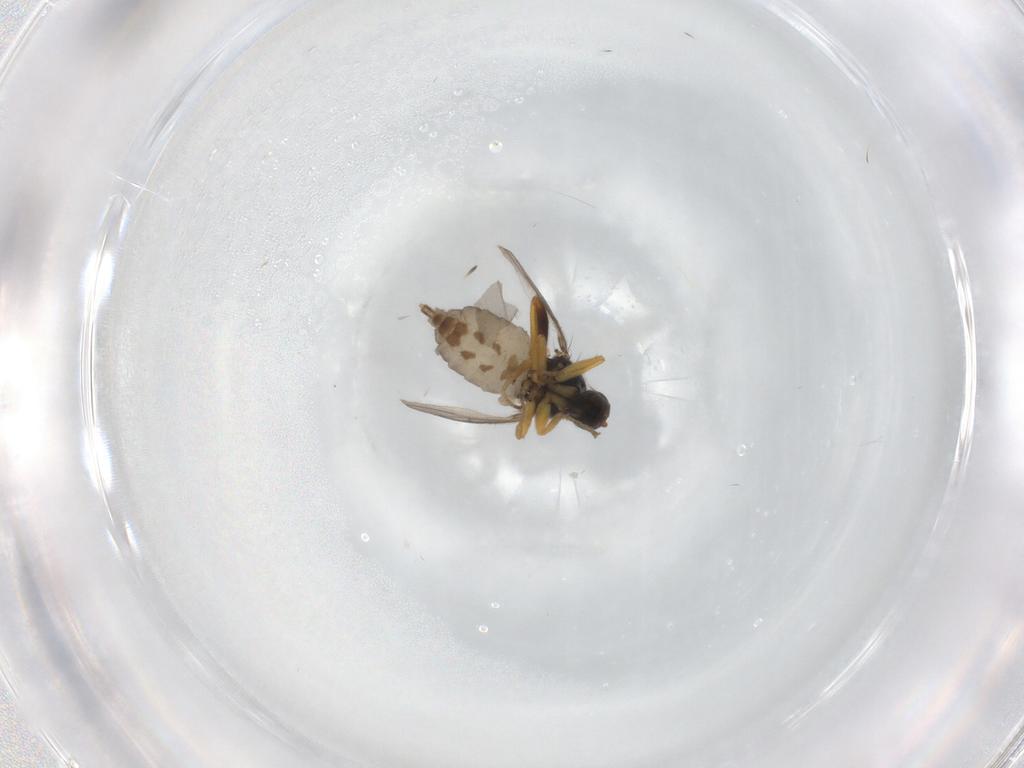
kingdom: Animalia
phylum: Arthropoda
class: Insecta
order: Diptera
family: Hybotidae
